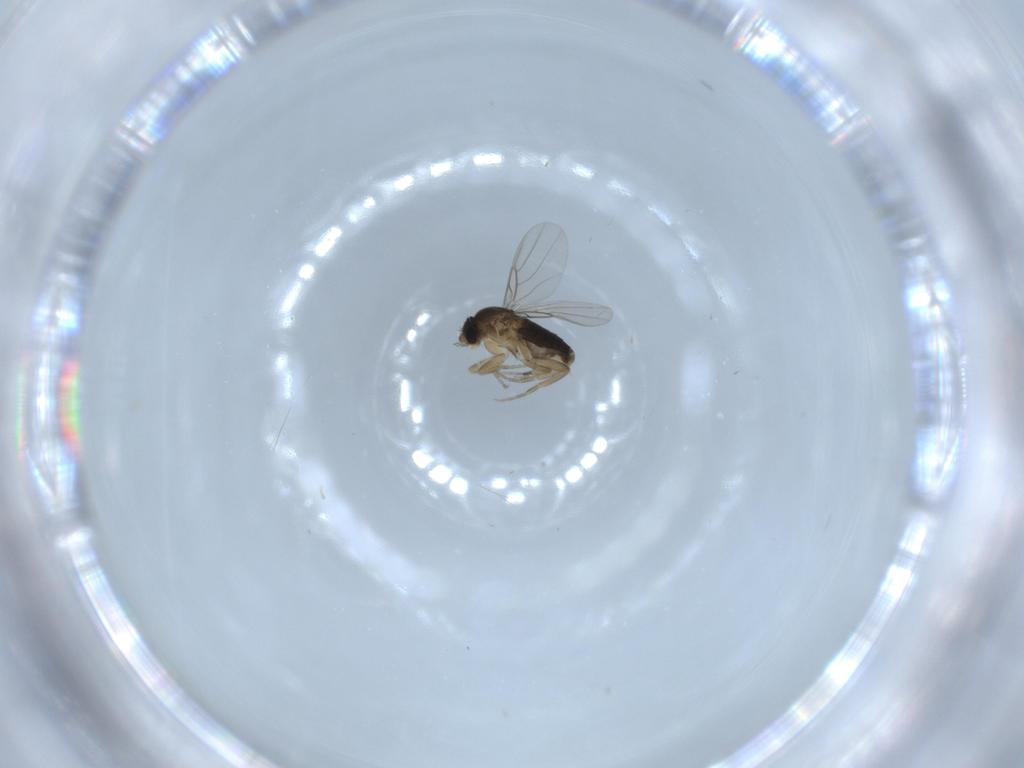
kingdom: Animalia
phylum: Arthropoda
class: Insecta
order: Diptera
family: Phoridae
